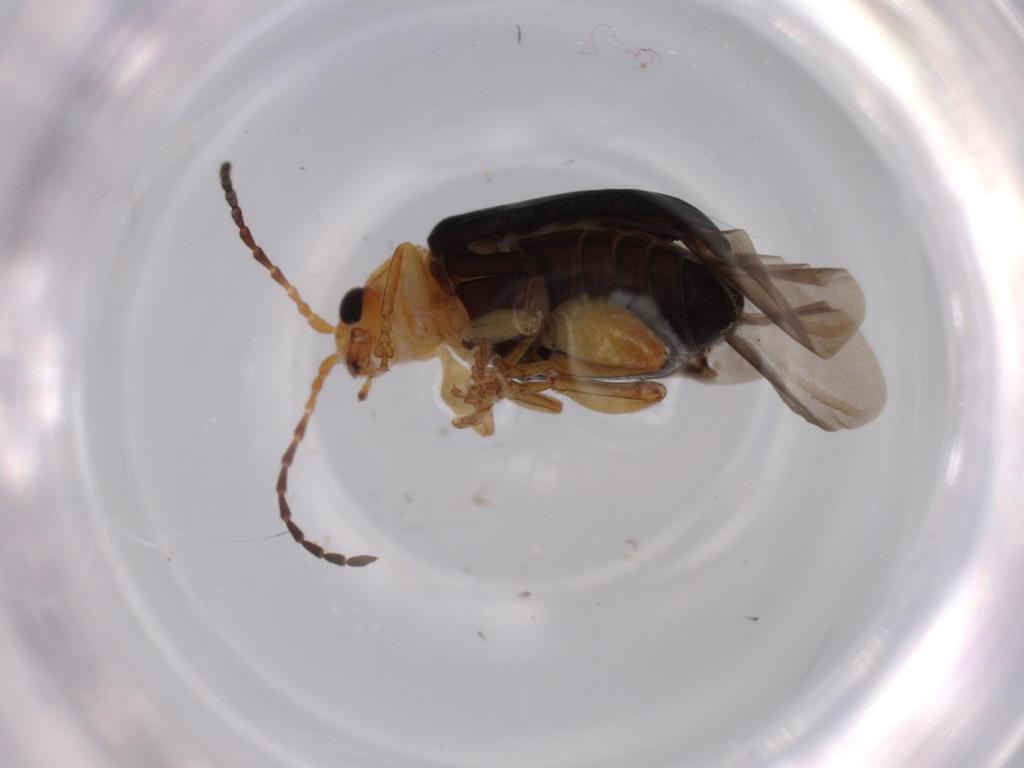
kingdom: Animalia
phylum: Arthropoda
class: Insecta
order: Coleoptera
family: Chrysomelidae
